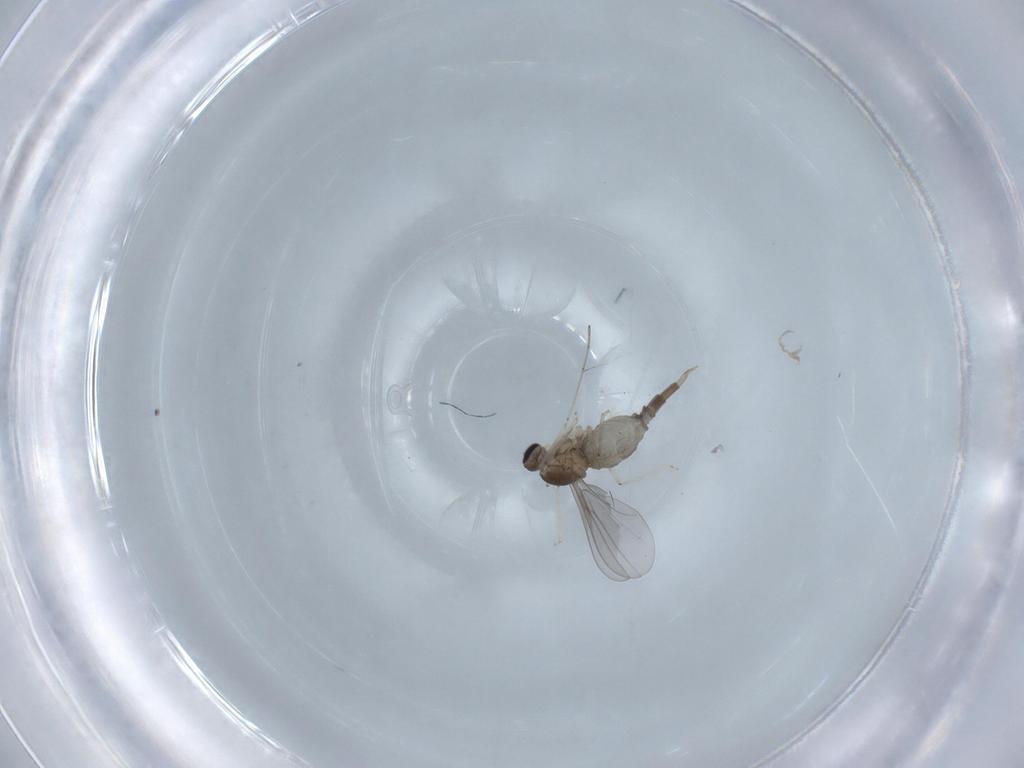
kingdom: Animalia
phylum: Arthropoda
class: Insecta
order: Diptera
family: Cecidomyiidae
